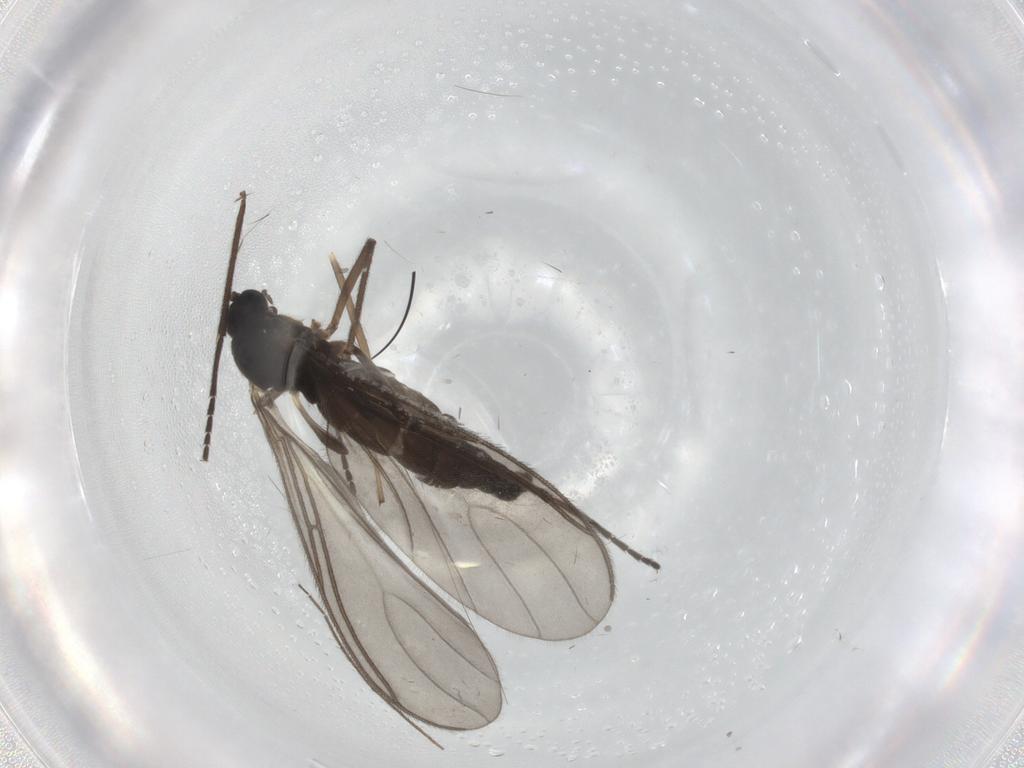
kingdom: Animalia
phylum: Arthropoda
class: Insecta
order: Diptera
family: Sciaridae
